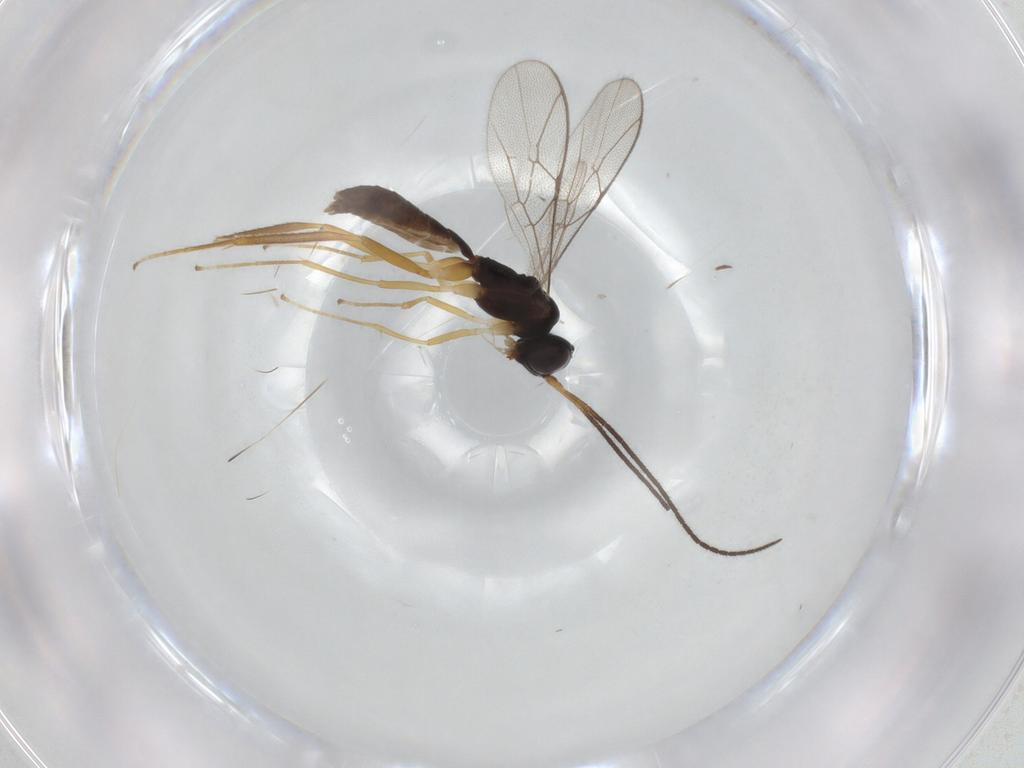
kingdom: Animalia
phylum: Arthropoda
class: Insecta
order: Hymenoptera
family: Ichneumonidae
